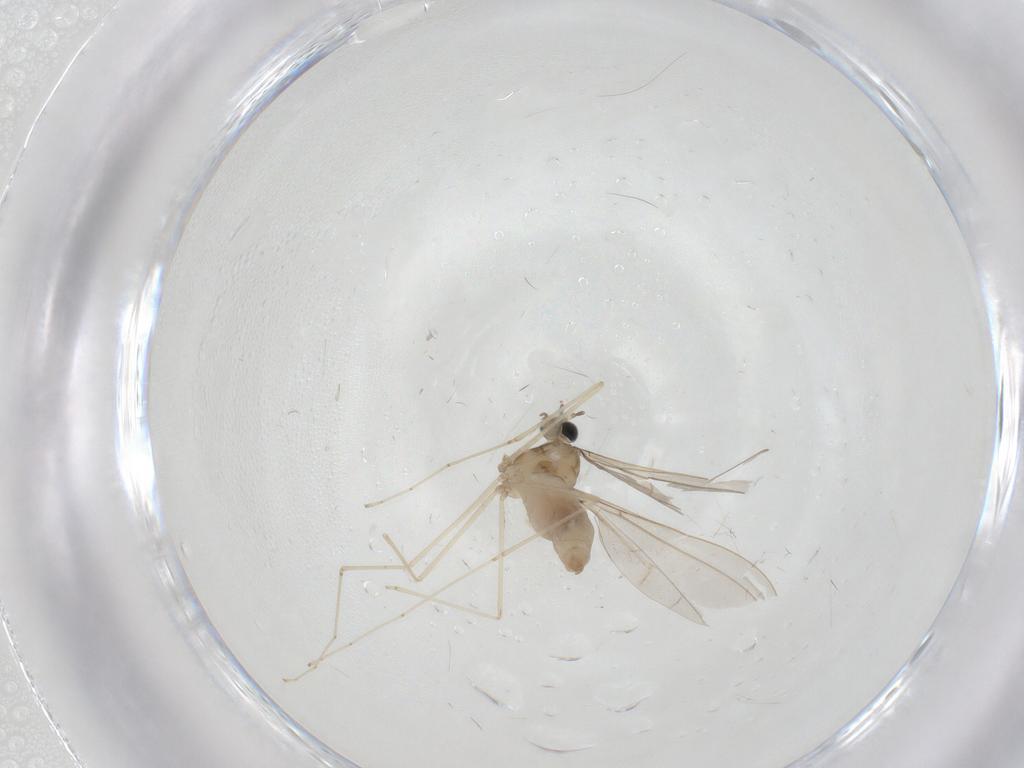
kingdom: Animalia
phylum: Arthropoda
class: Insecta
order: Diptera
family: Cecidomyiidae
